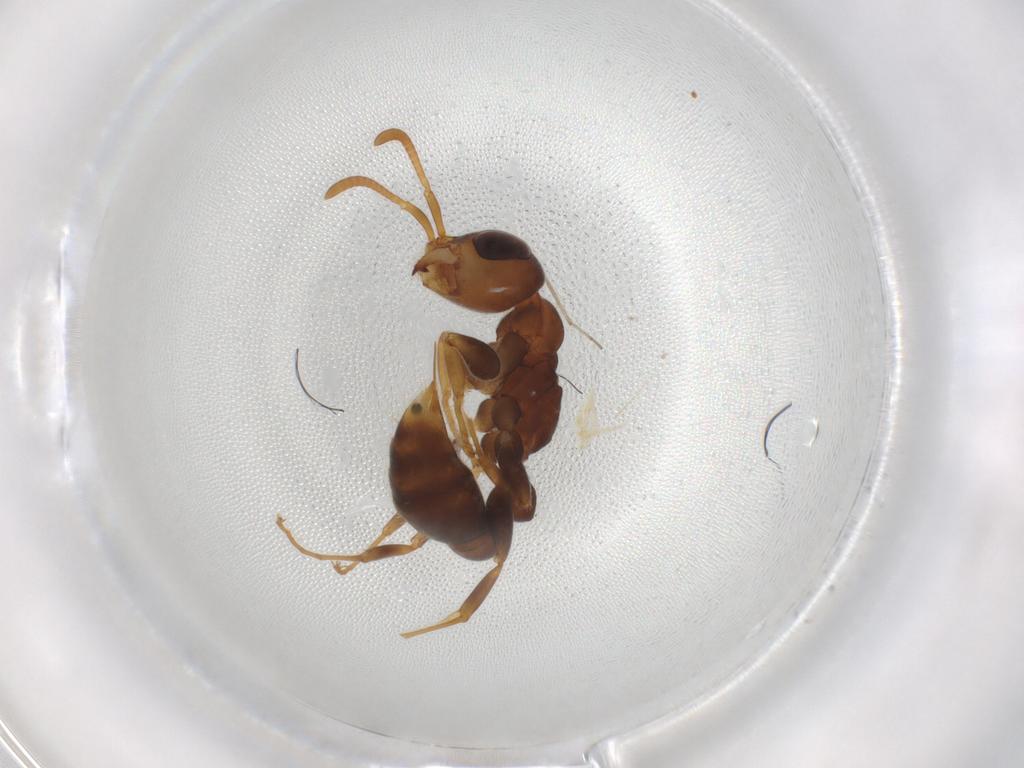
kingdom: Animalia
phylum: Arthropoda
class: Insecta
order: Hymenoptera
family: Formicidae
